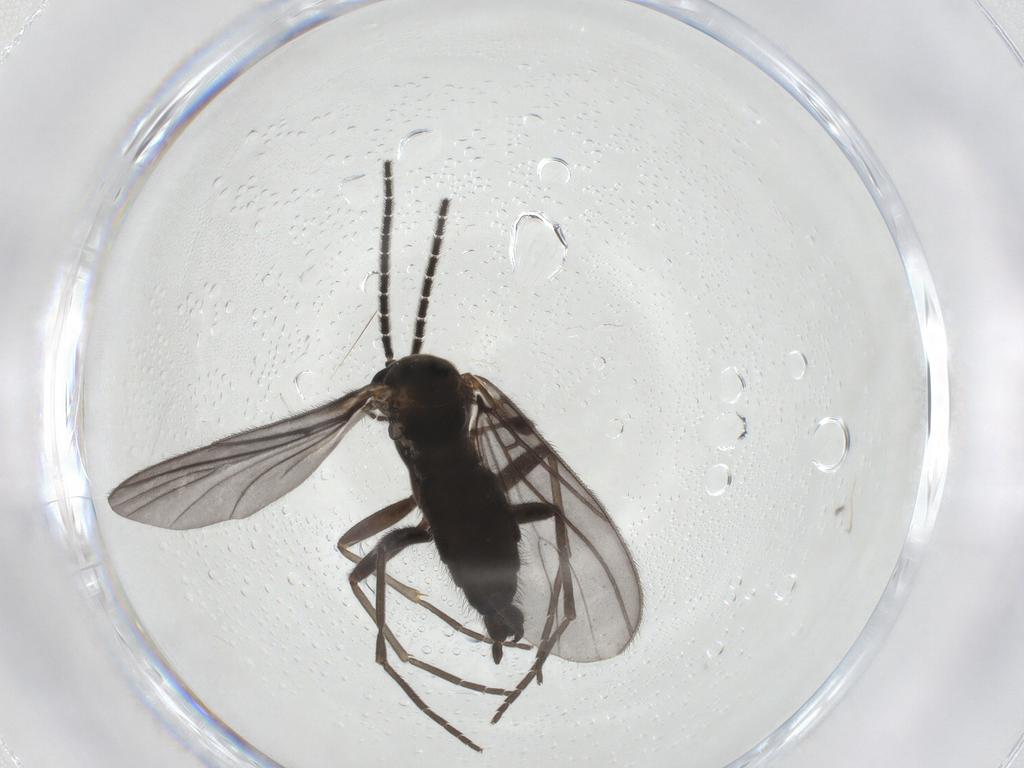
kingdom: Animalia
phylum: Arthropoda
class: Insecta
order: Diptera
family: Sciaridae
